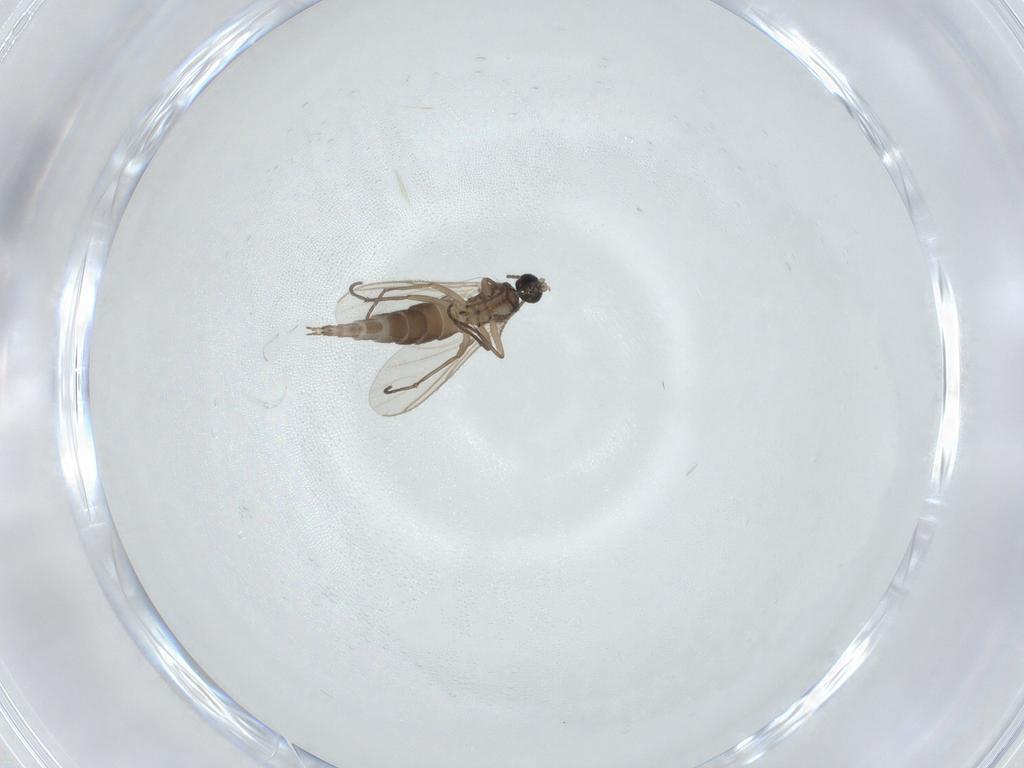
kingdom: Animalia
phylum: Arthropoda
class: Insecta
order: Diptera
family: Sciaridae
